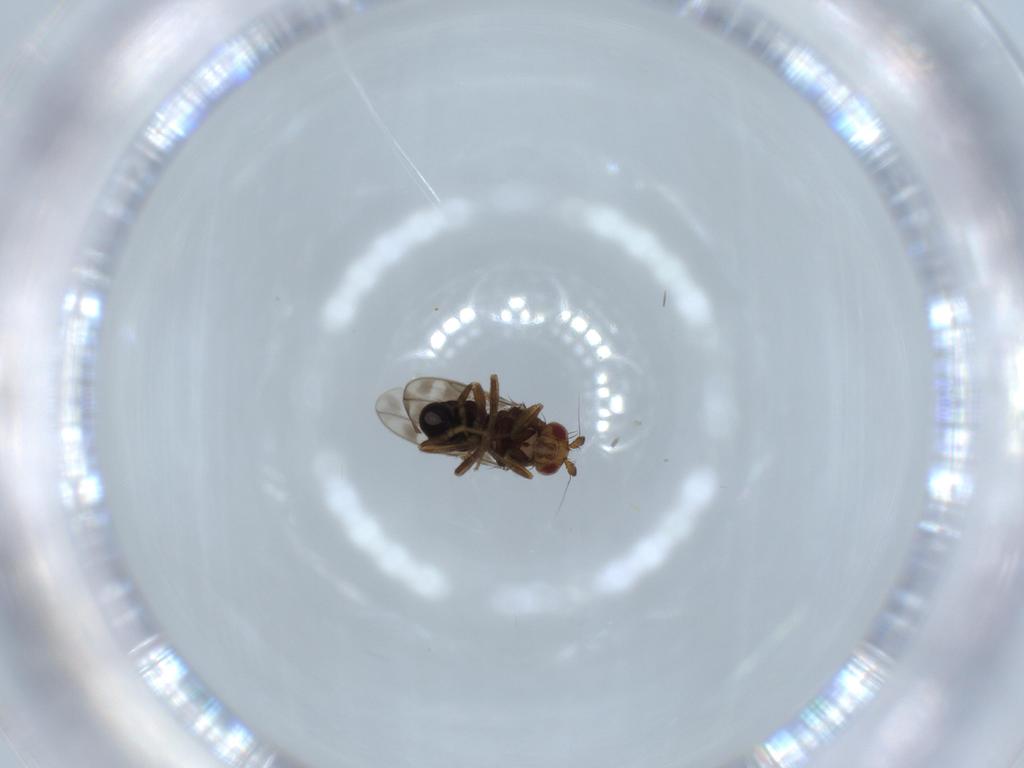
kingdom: Animalia
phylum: Arthropoda
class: Insecta
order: Diptera
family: Sphaeroceridae
